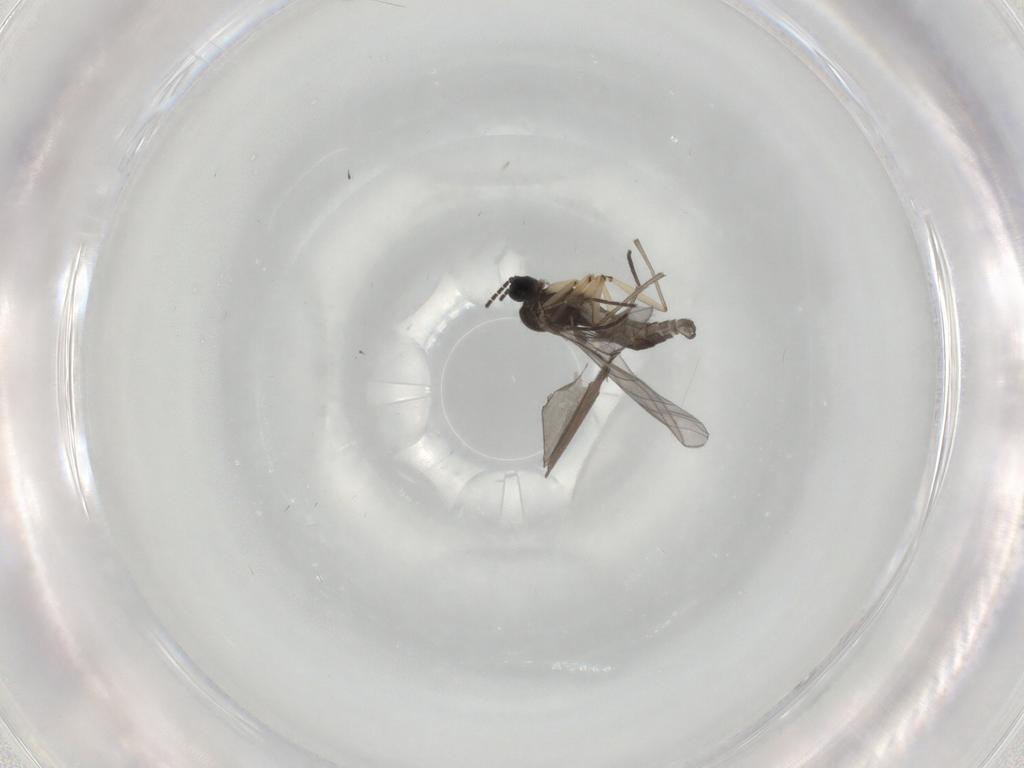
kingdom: Animalia
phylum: Arthropoda
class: Insecta
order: Diptera
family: Sciaridae
